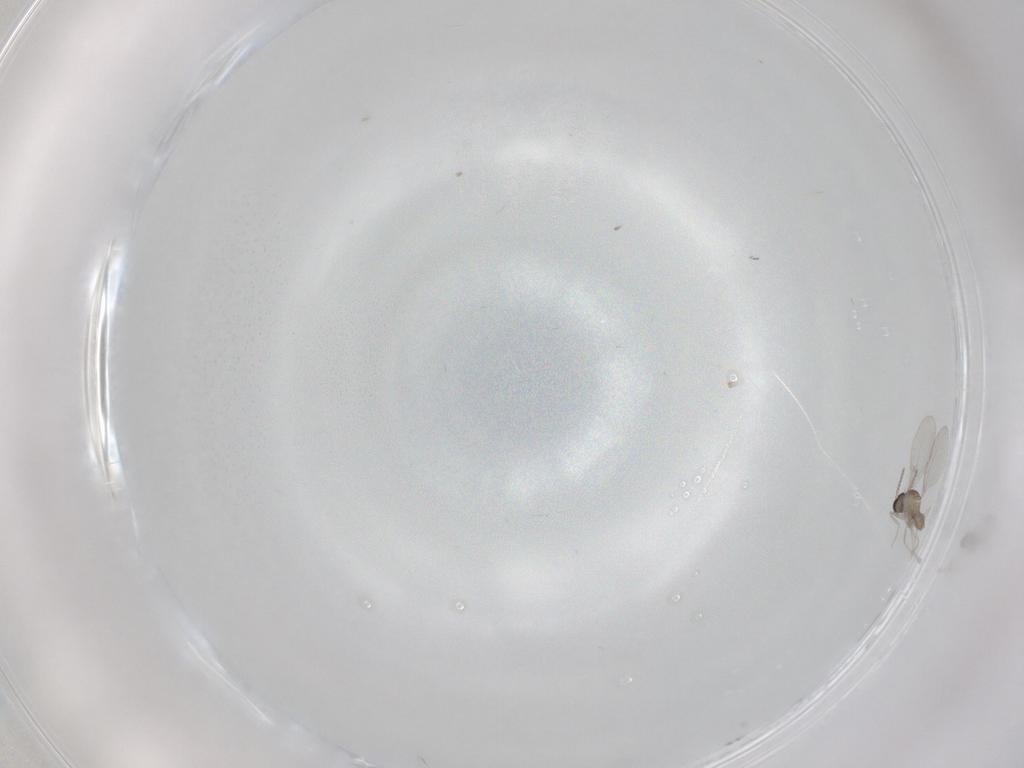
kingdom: Animalia
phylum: Arthropoda
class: Insecta
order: Diptera
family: Cecidomyiidae
